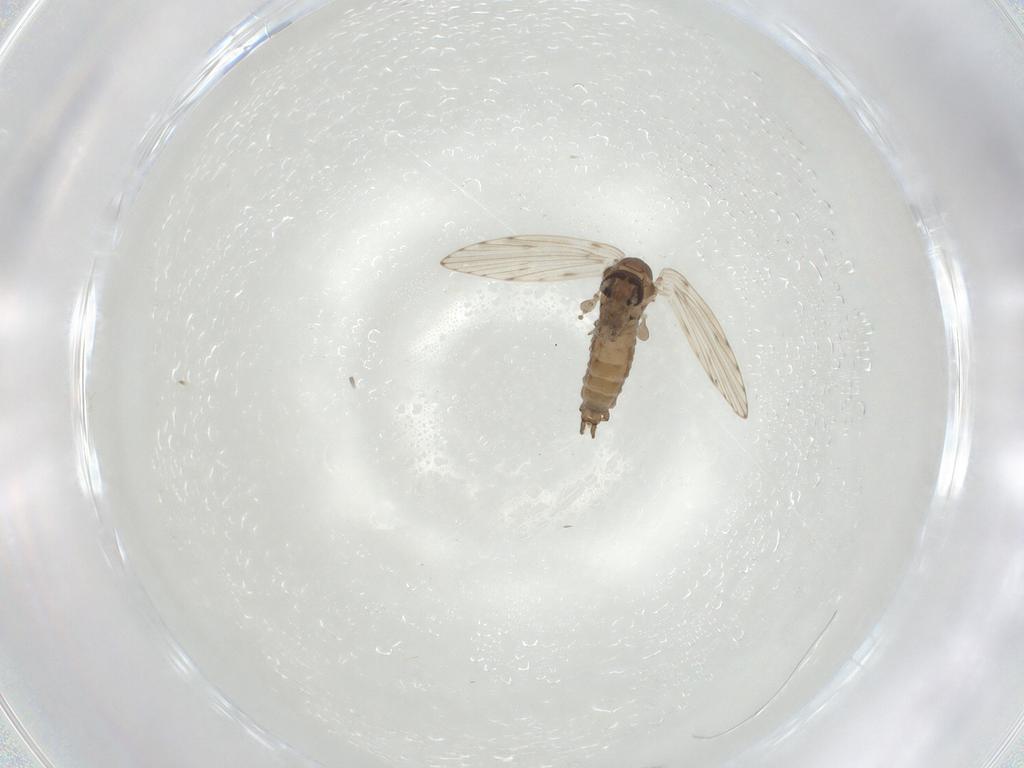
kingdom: Animalia
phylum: Arthropoda
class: Insecta
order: Diptera
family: Psychodidae
